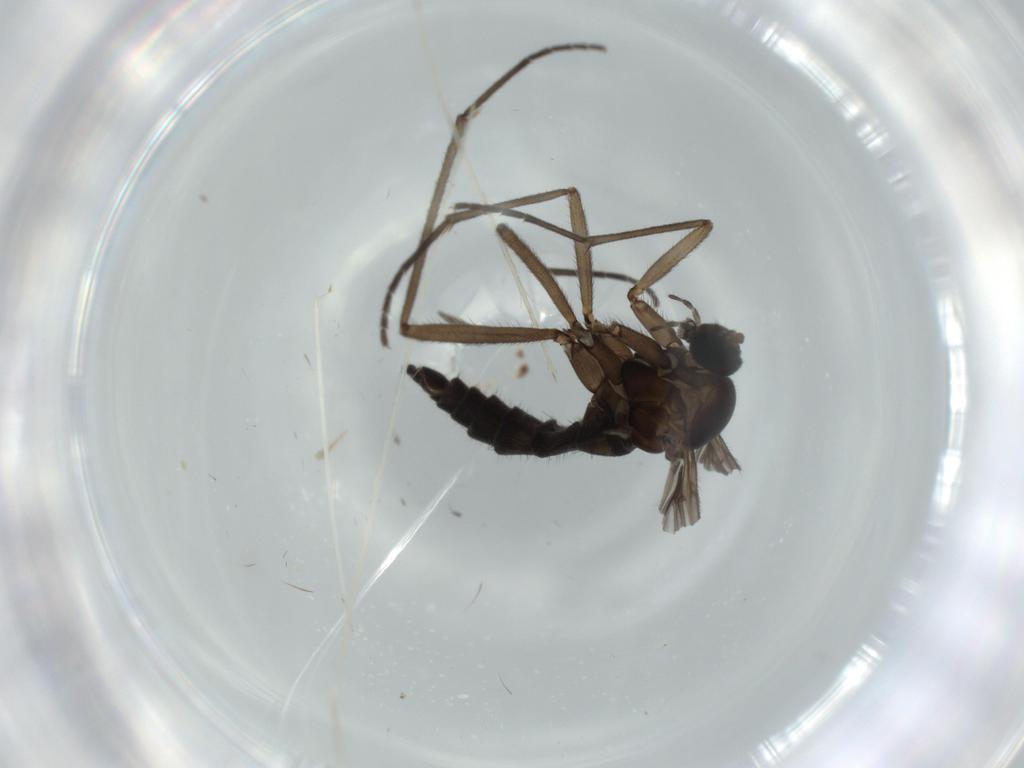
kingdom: Animalia
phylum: Arthropoda
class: Insecta
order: Diptera
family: Sciaridae
